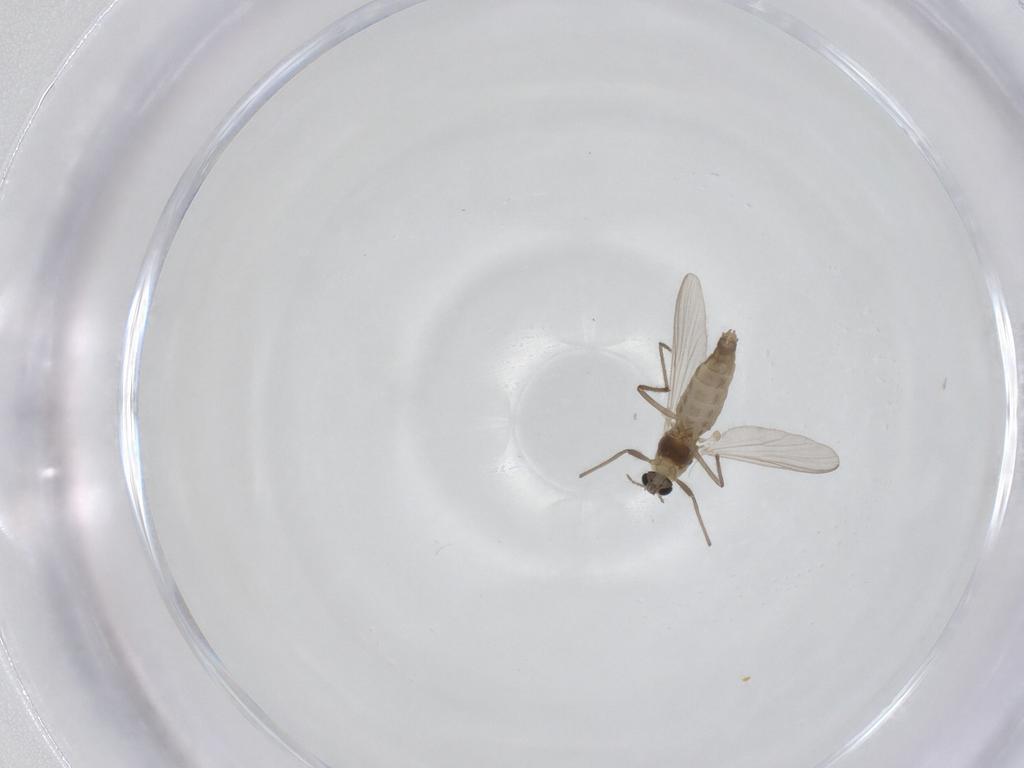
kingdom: Animalia
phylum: Arthropoda
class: Insecta
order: Diptera
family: Chironomidae
